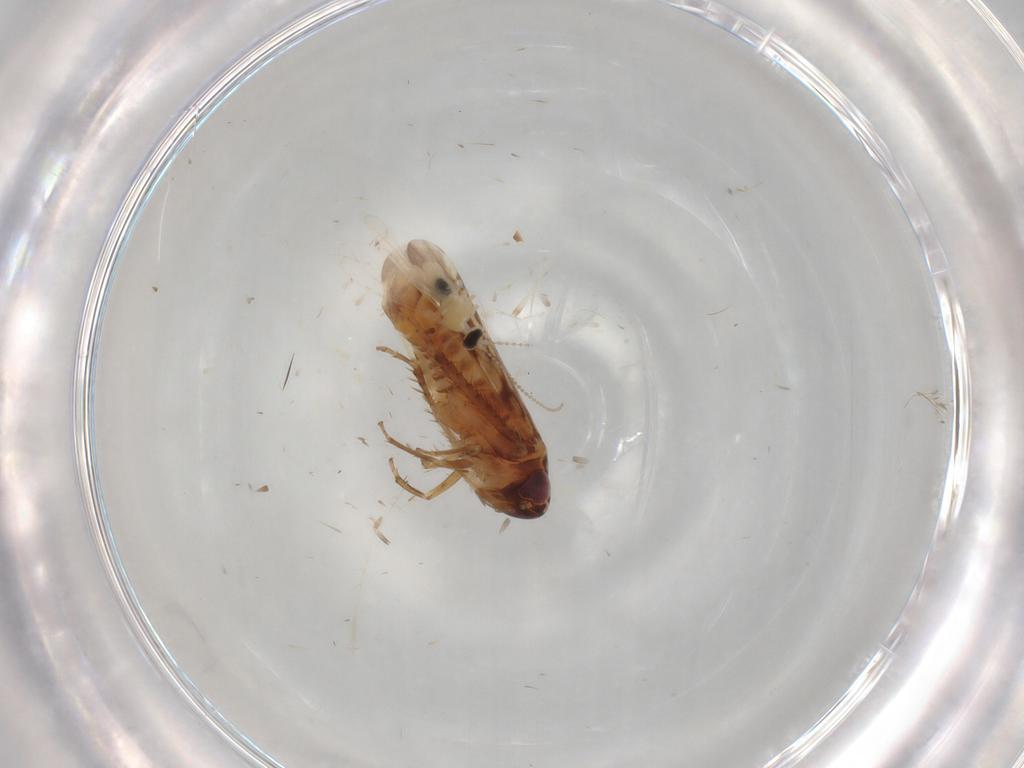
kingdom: Animalia
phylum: Arthropoda
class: Insecta
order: Hemiptera
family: Cicadellidae
